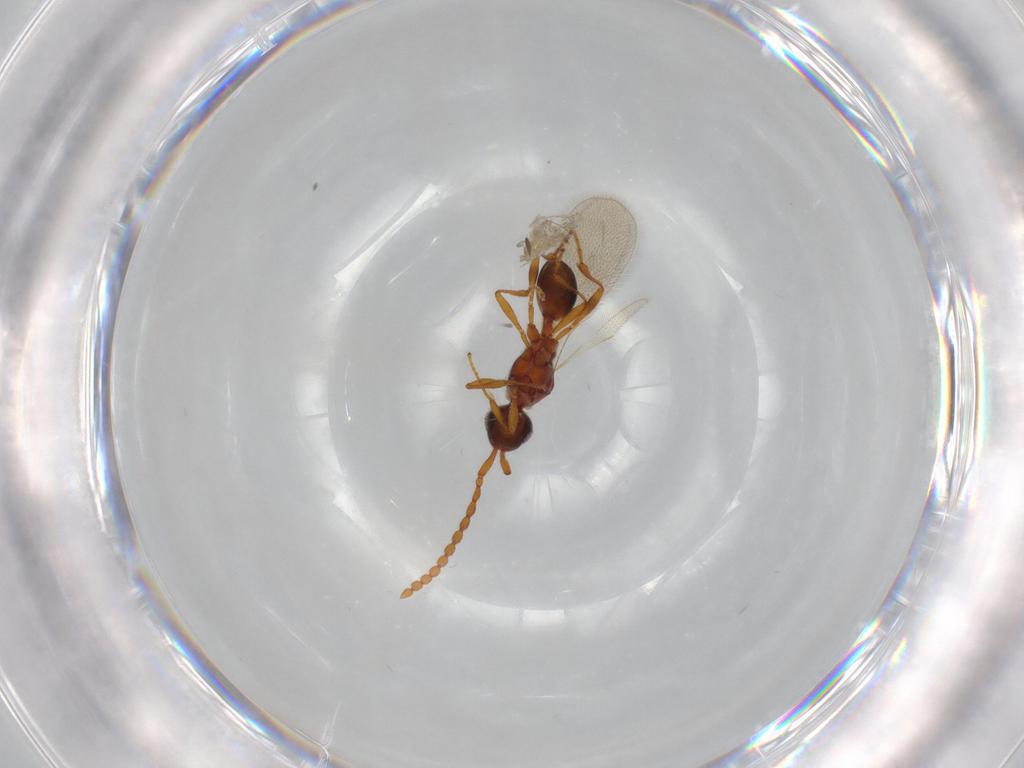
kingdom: Animalia
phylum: Arthropoda
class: Insecta
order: Hymenoptera
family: Diapriidae
